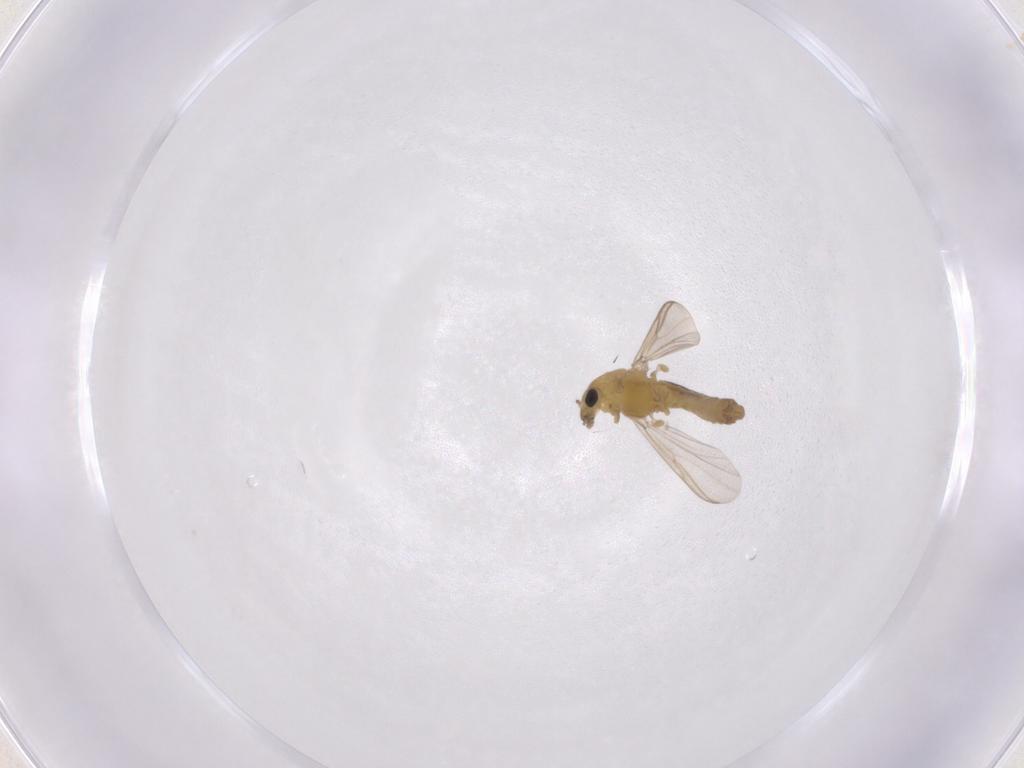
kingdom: Animalia
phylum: Arthropoda
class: Insecta
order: Diptera
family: Chironomidae
